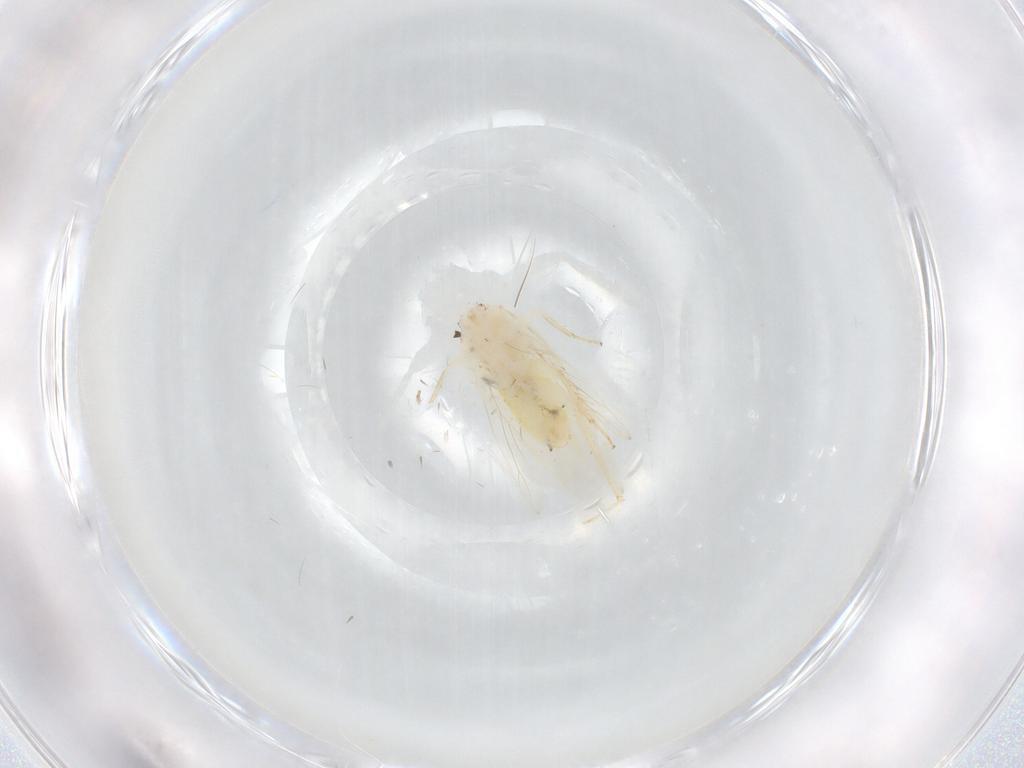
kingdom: Animalia
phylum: Arthropoda
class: Insecta
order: Psocodea
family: Lepidopsocidae
